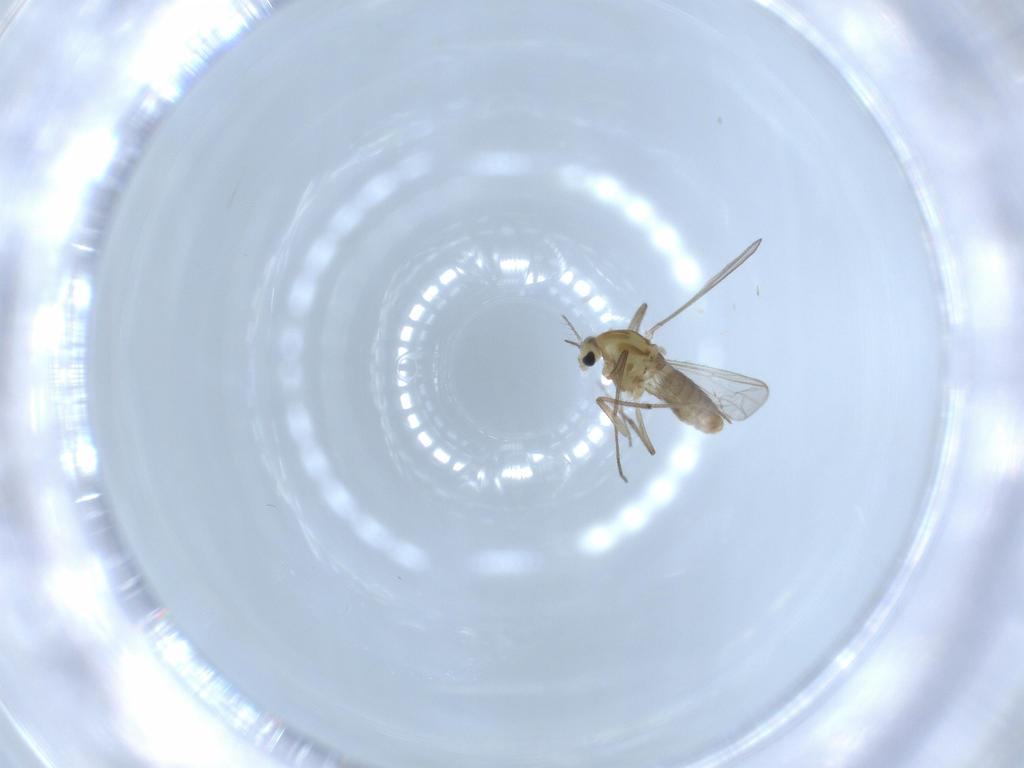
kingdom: Animalia
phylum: Arthropoda
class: Insecta
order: Diptera
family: Chironomidae
